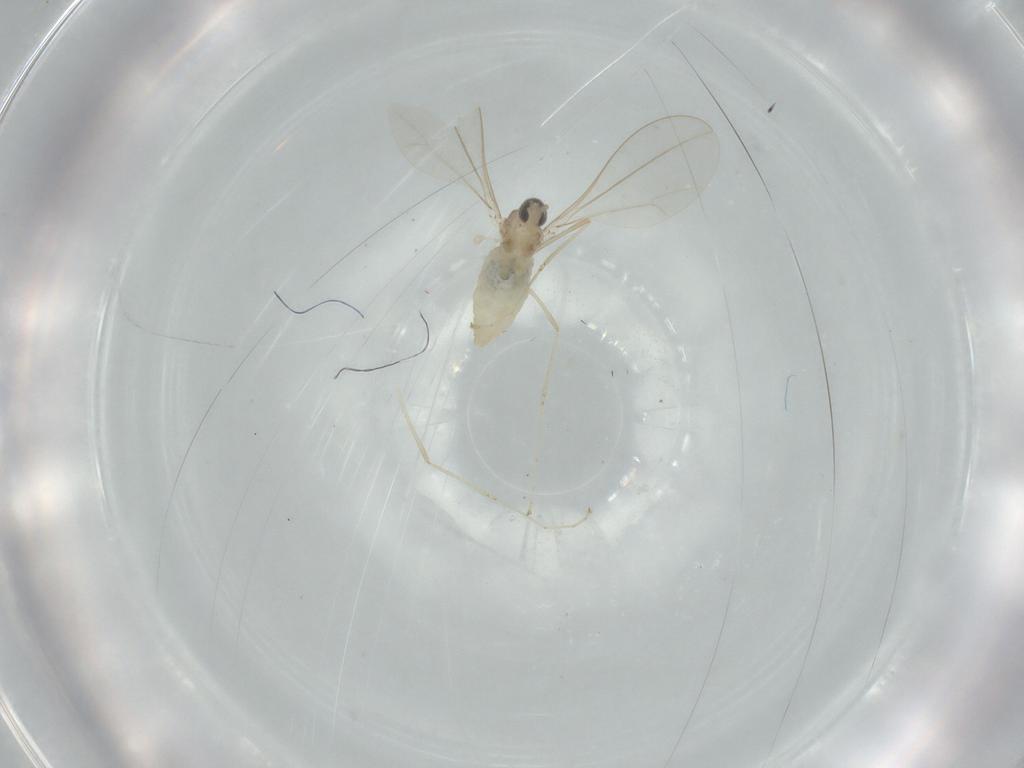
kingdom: Animalia
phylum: Arthropoda
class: Insecta
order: Diptera
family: Cecidomyiidae
